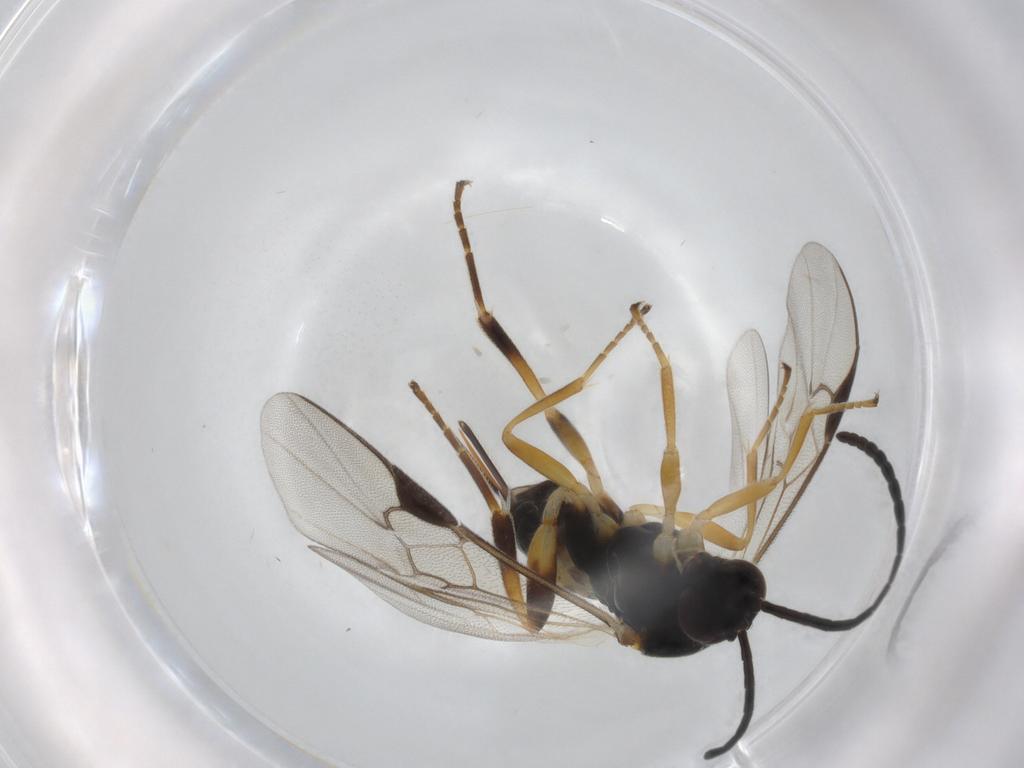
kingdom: Animalia
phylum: Arthropoda
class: Insecta
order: Hymenoptera
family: Braconidae
